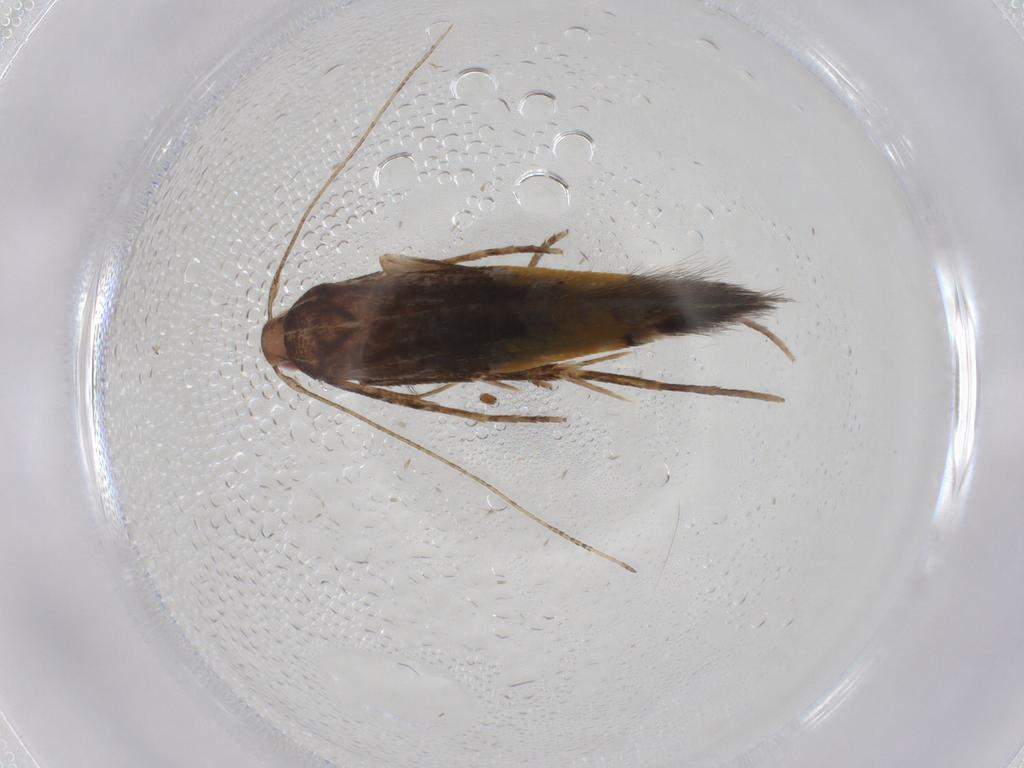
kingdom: Animalia
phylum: Arthropoda
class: Insecta
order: Lepidoptera
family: Cosmopterigidae
